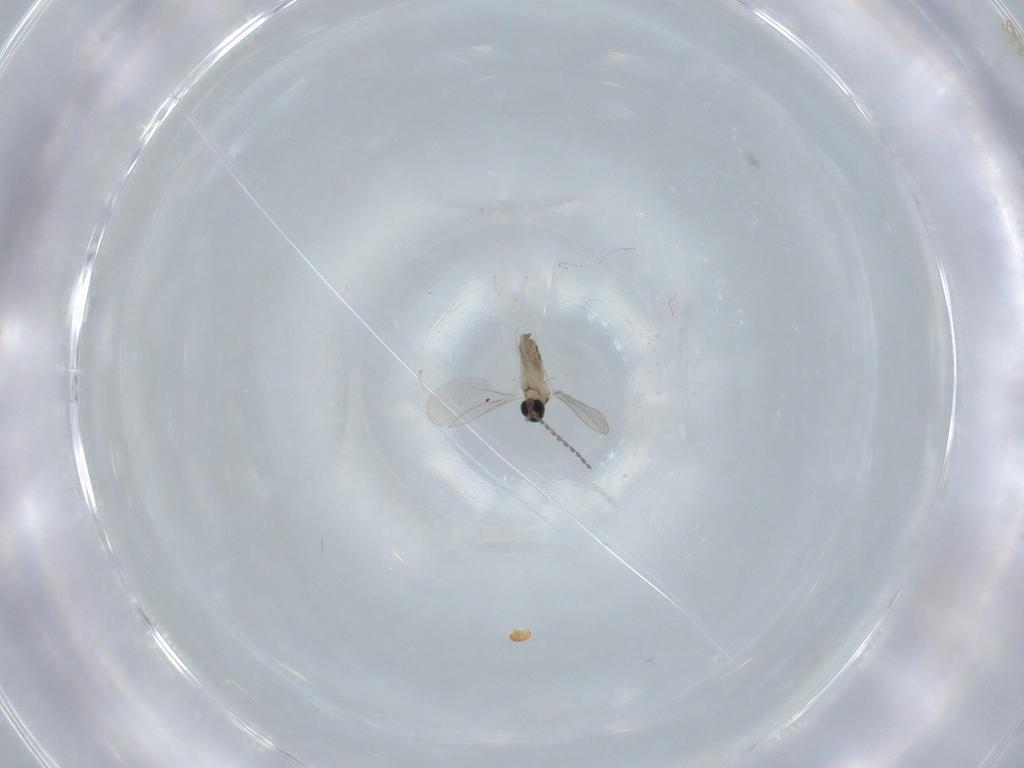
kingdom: Animalia
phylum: Arthropoda
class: Insecta
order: Diptera
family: Cecidomyiidae
